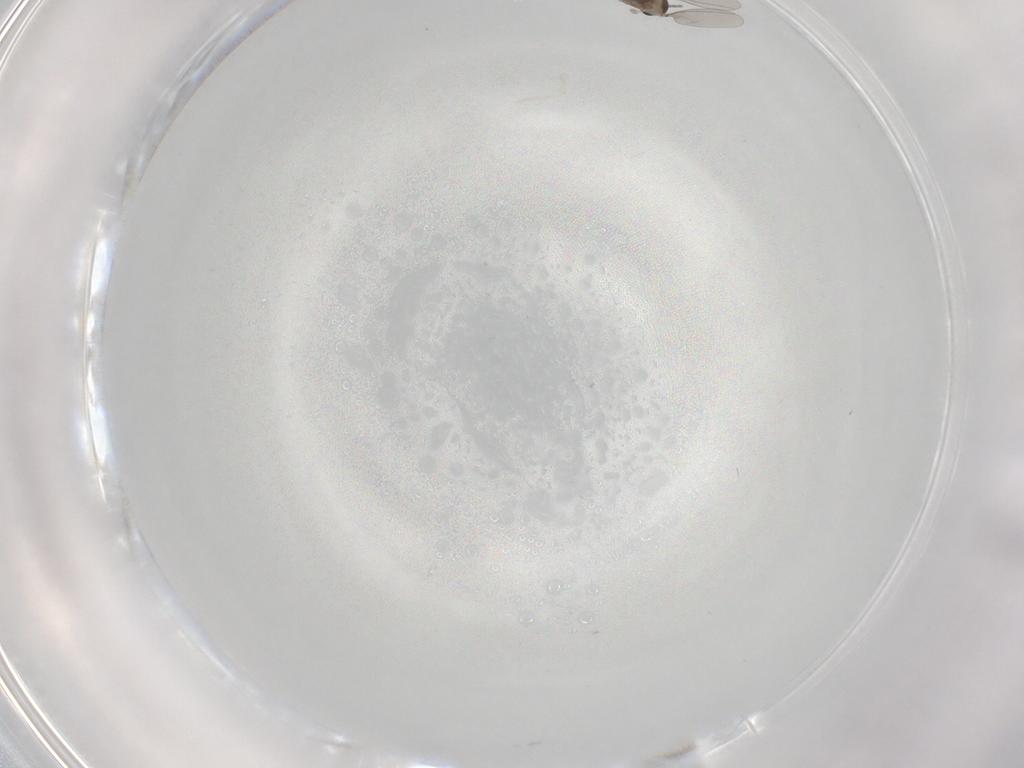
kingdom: Animalia
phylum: Arthropoda
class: Insecta
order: Diptera
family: Cecidomyiidae
